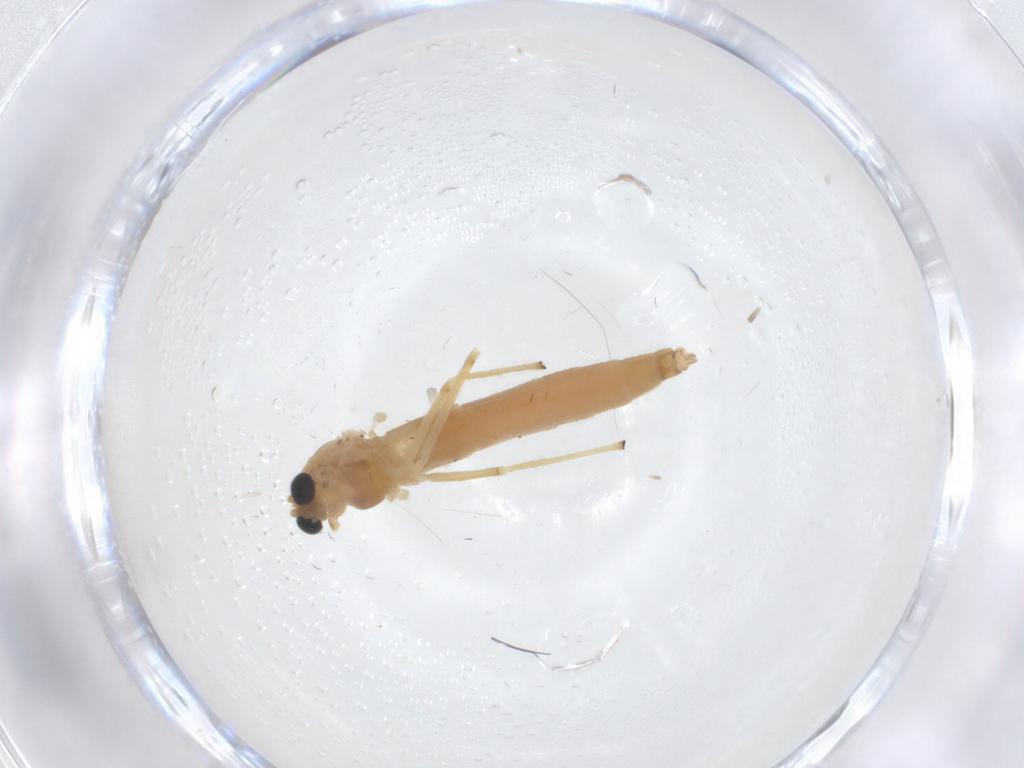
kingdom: Animalia
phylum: Arthropoda
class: Insecta
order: Diptera
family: Chironomidae
